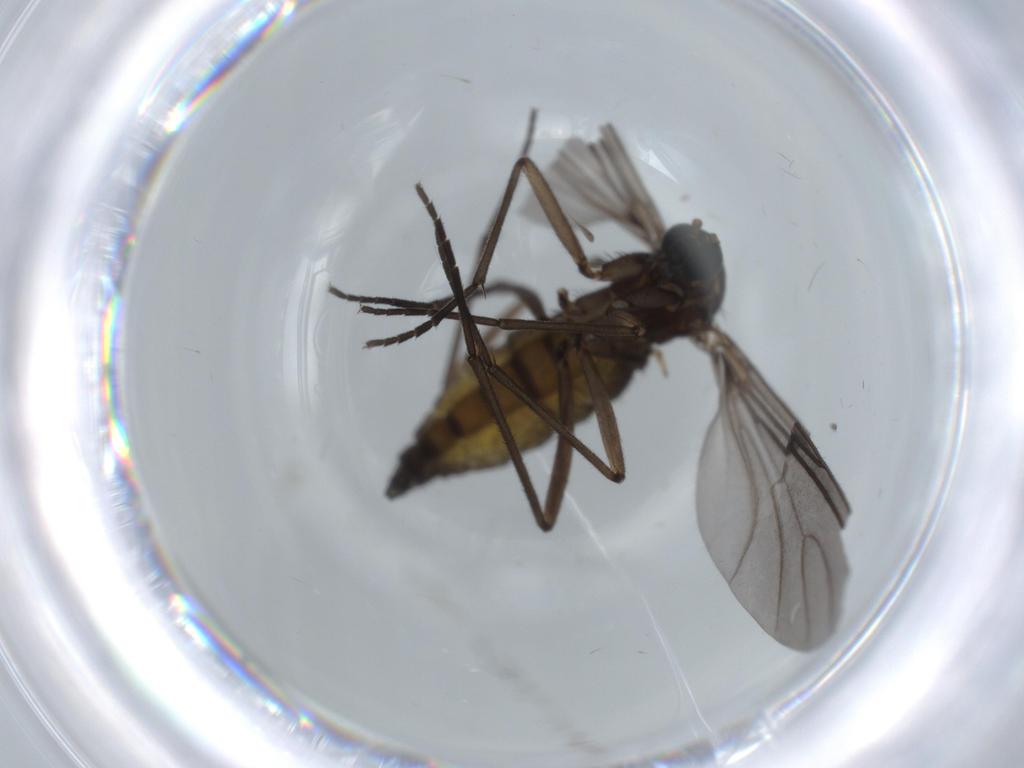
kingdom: Animalia
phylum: Arthropoda
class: Insecta
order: Diptera
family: Sciaridae
